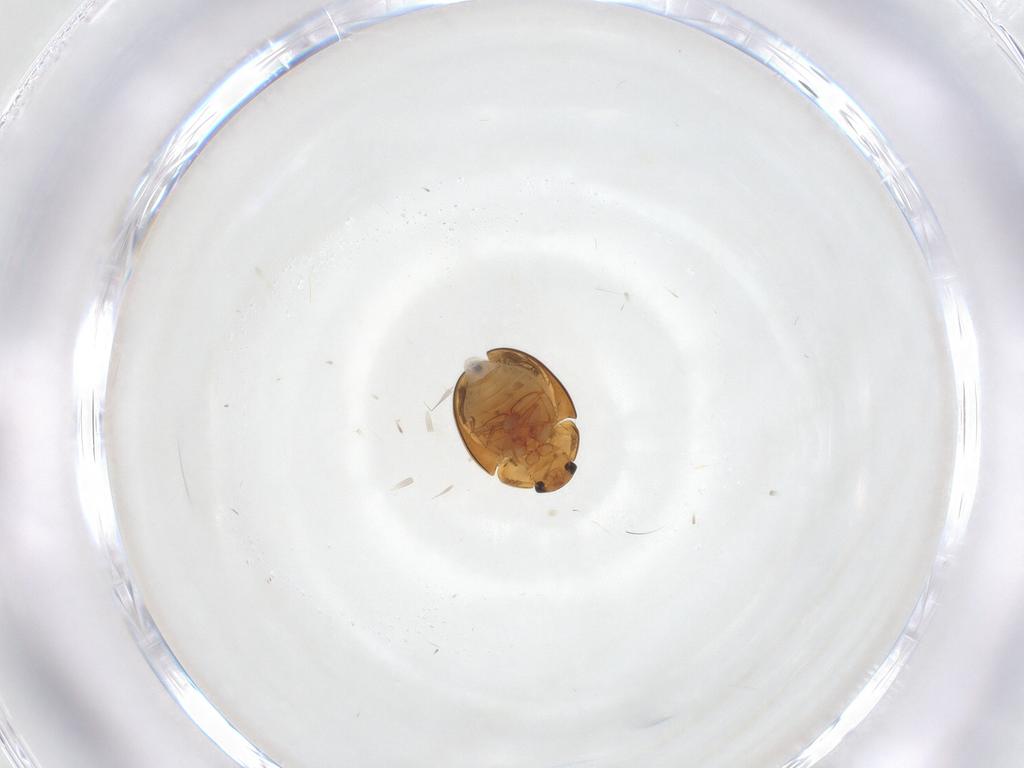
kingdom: Animalia
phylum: Arthropoda
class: Insecta
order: Coleoptera
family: Phalacridae
